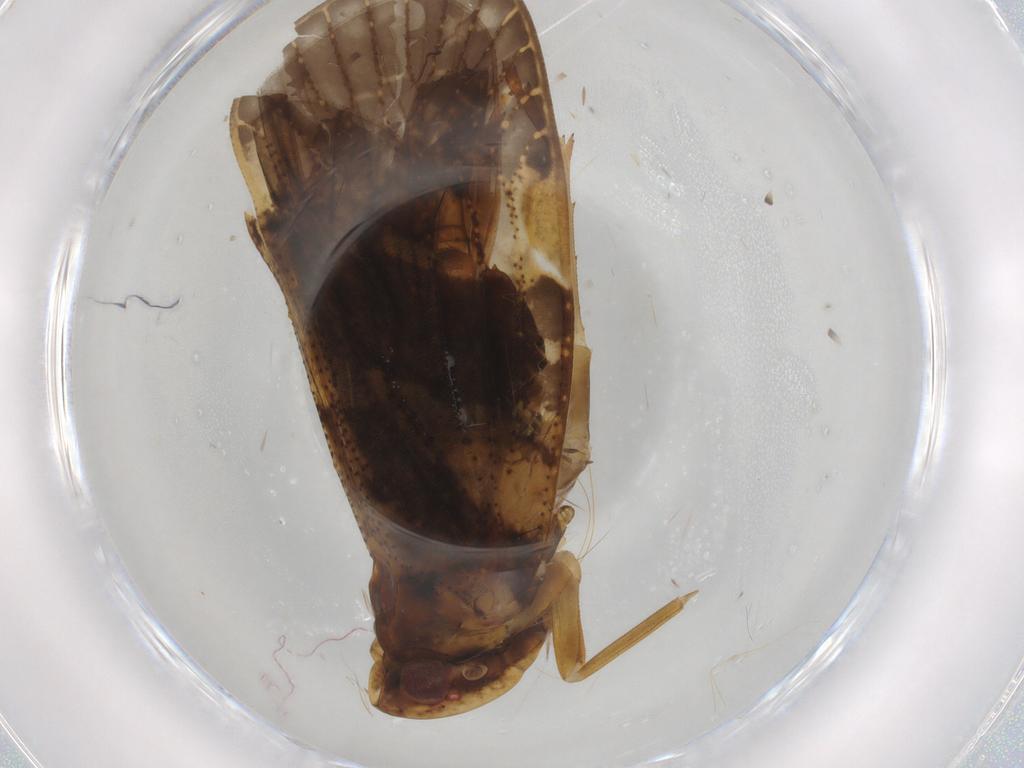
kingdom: Animalia
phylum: Arthropoda
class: Insecta
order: Hemiptera
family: Cixiidae
